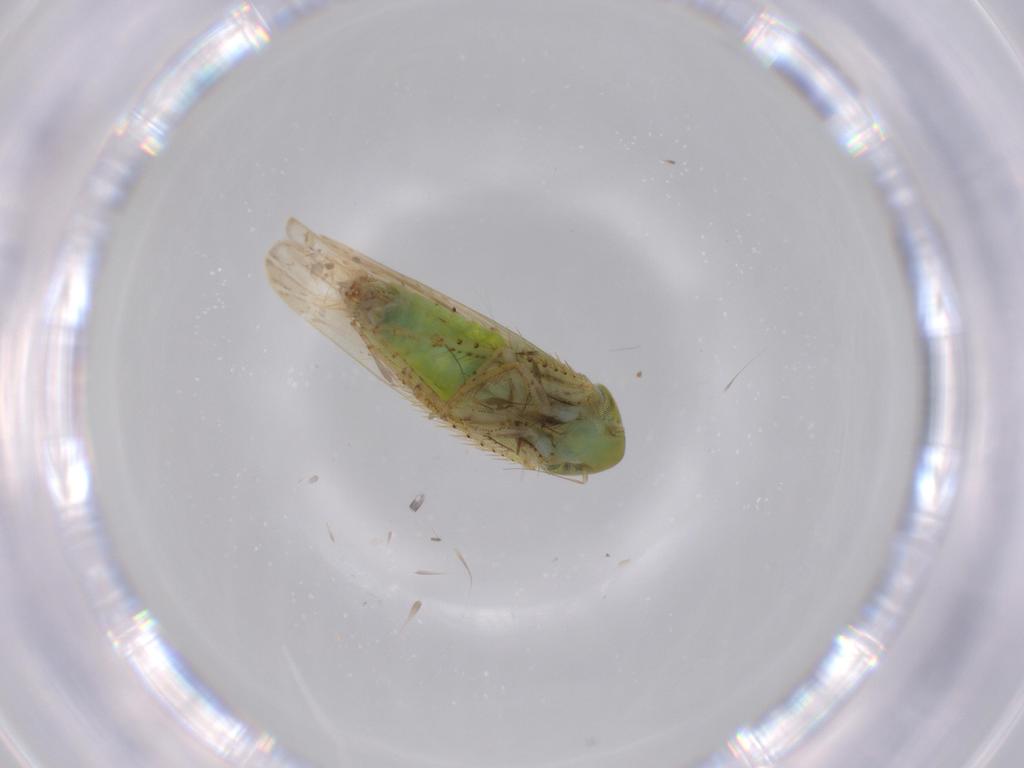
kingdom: Animalia
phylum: Arthropoda
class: Insecta
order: Hemiptera
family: Cicadellidae
